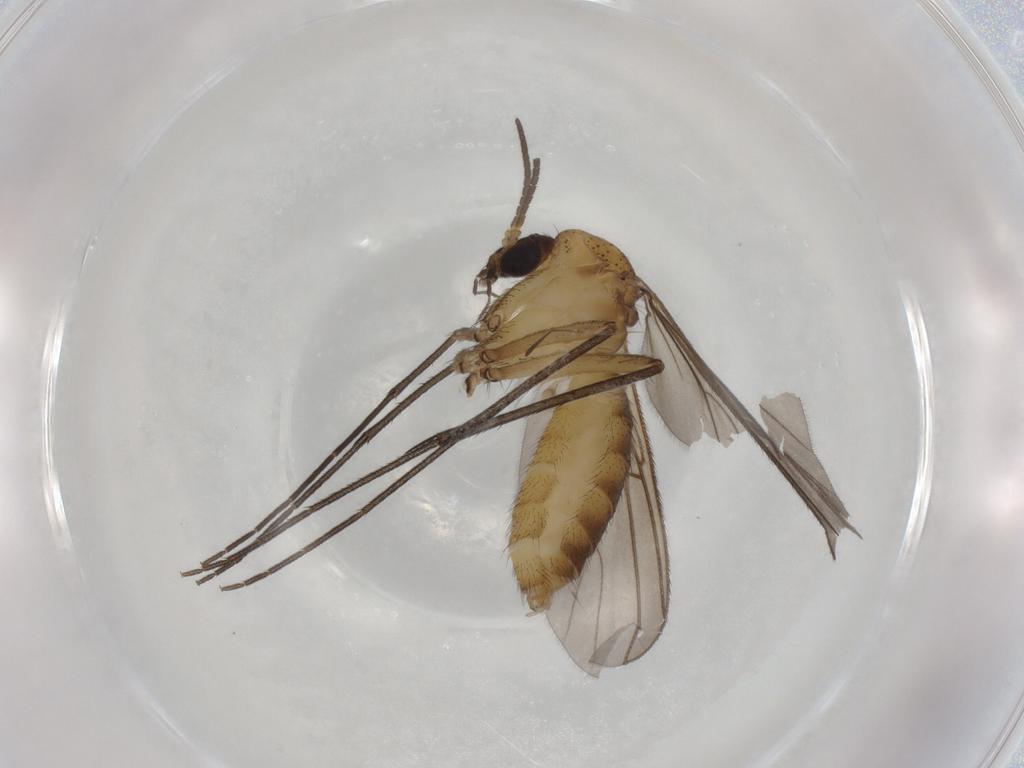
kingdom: Animalia
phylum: Arthropoda
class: Insecta
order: Diptera
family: Mycetophilidae
